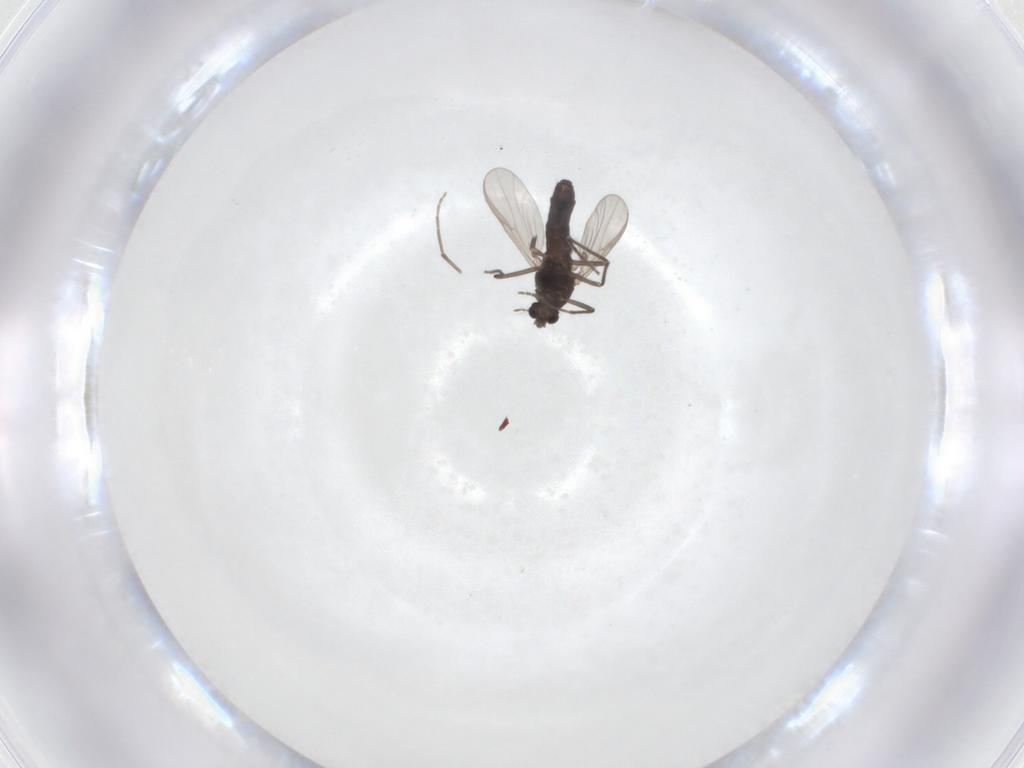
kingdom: Animalia
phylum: Arthropoda
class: Insecta
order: Diptera
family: Chironomidae
